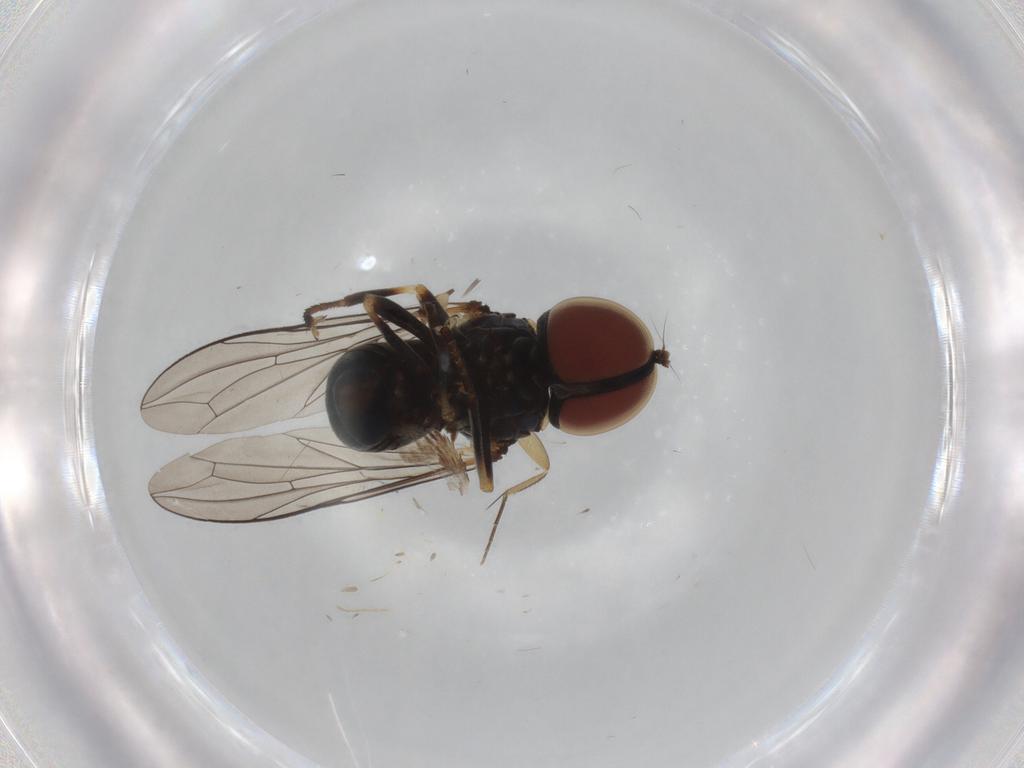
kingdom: Animalia
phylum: Arthropoda
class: Insecta
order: Diptera
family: Pipunculidae
